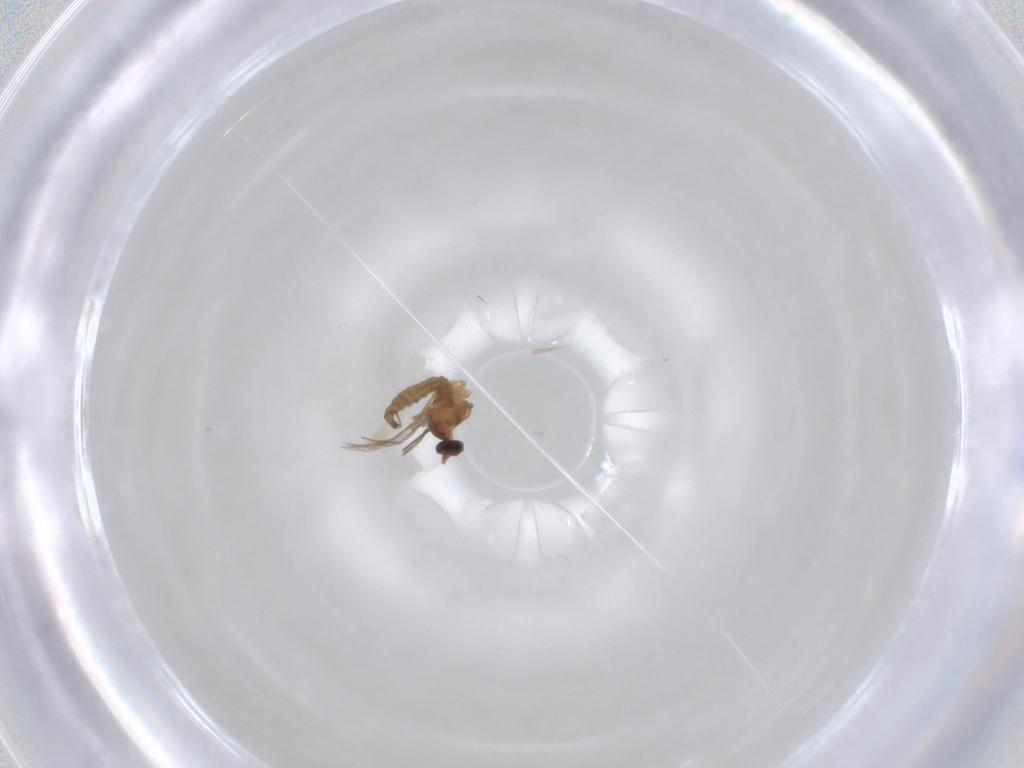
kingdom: Animalia
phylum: Arthropoda
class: Insecta
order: Diptera
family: Cecidomyiidae
